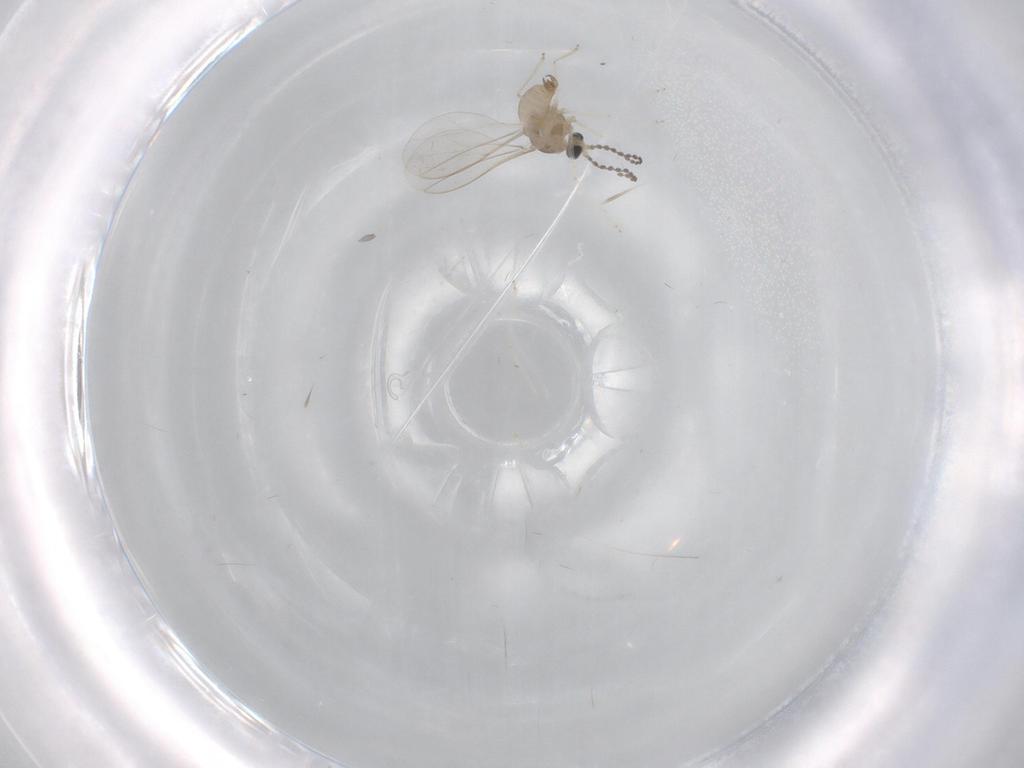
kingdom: Animalia
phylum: Arthropoda
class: Insecta
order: Diptera
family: Cecidomyiidae
